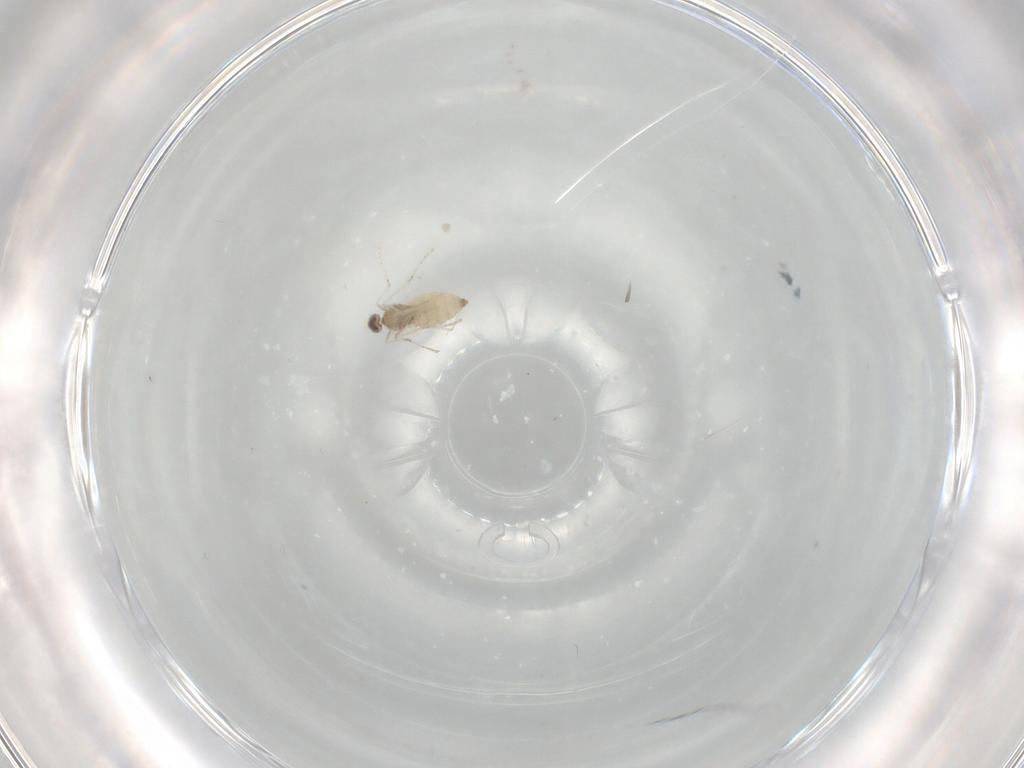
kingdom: Animalia
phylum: Arthropoda
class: Insecta
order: Diptera
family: Cecidomyiidae
